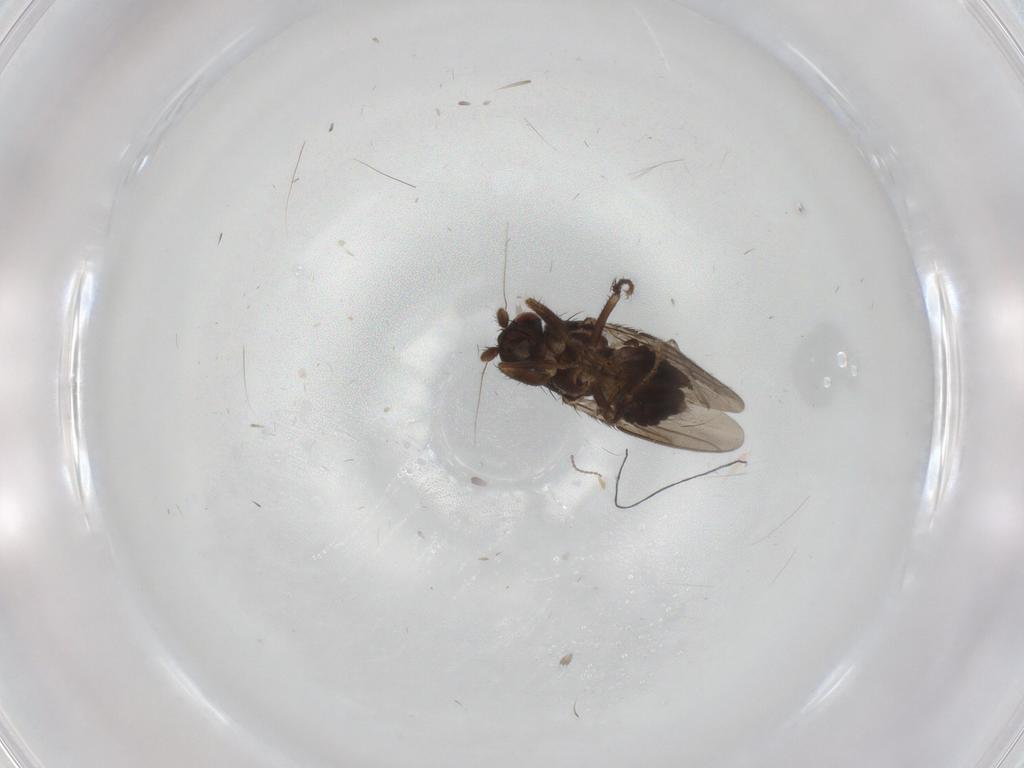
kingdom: Animalia
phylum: Arthropoda
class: Insecta
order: Diptera
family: Sphaeroceridae
